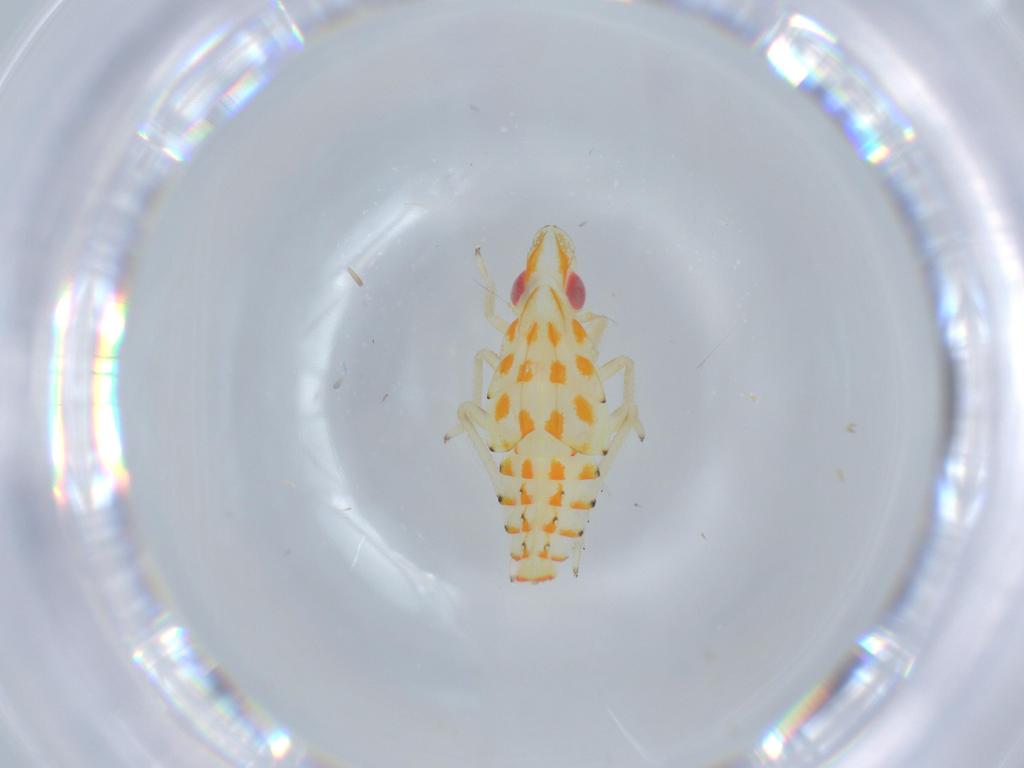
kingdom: Animalia
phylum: Arthropoda
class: Insecta
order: Hemiptera
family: Tropiduchidae
